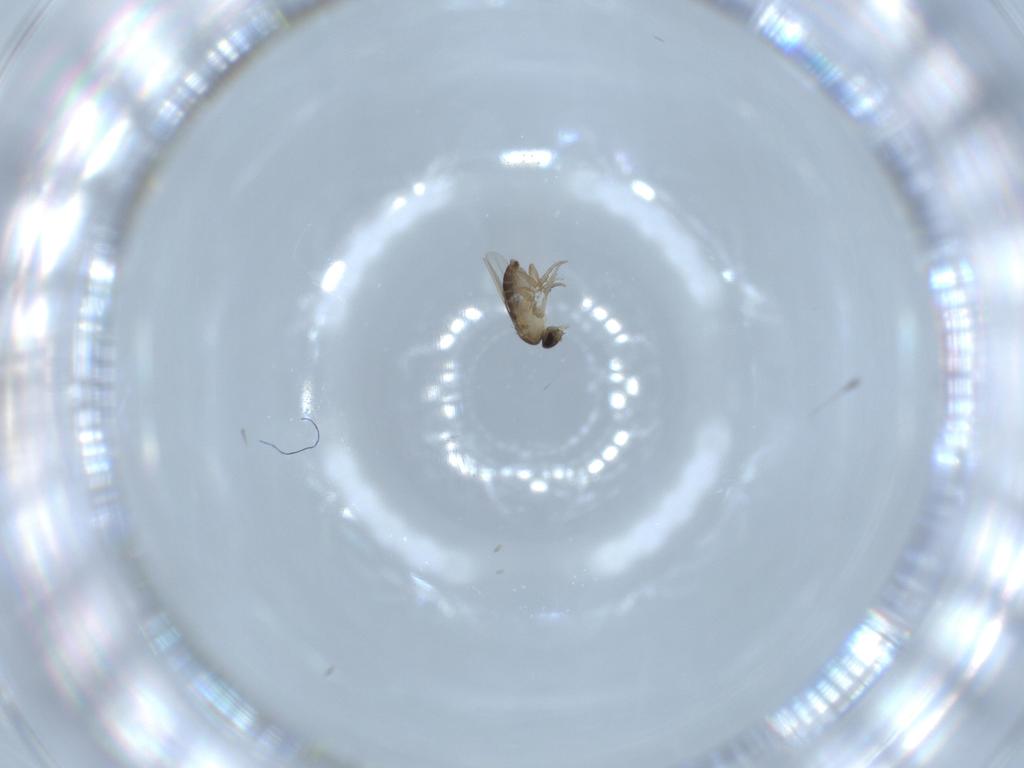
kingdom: Animalia
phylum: Arthropoda
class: Insecta
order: Diptera
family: Phoridae
